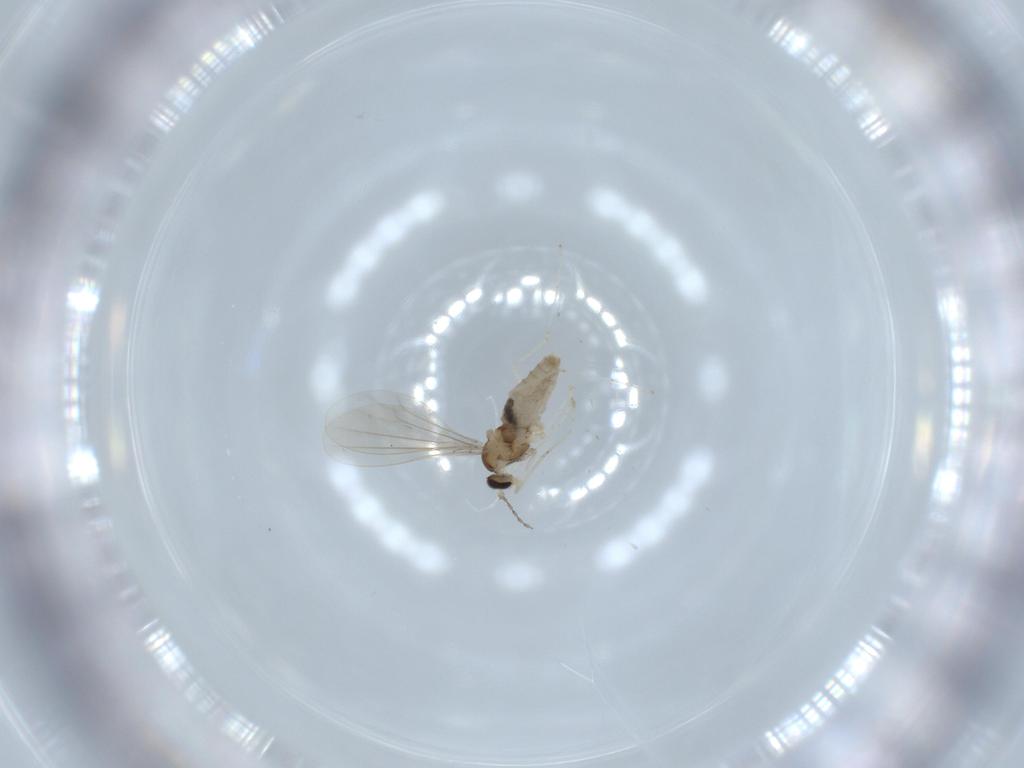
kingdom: Animalia
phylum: Arthropoda
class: Insecta
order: Diptera
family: Cecidomyiidae
